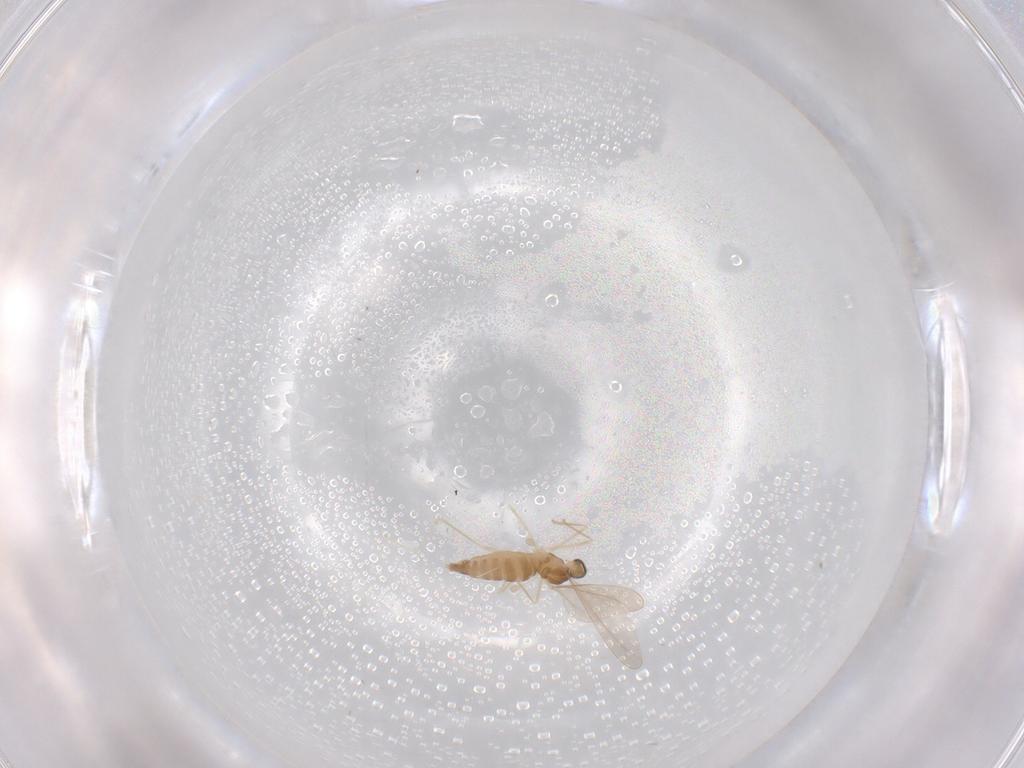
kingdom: Animalia
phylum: Arthropoda
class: Insecta
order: Diptera
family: Cecidomyiidae
